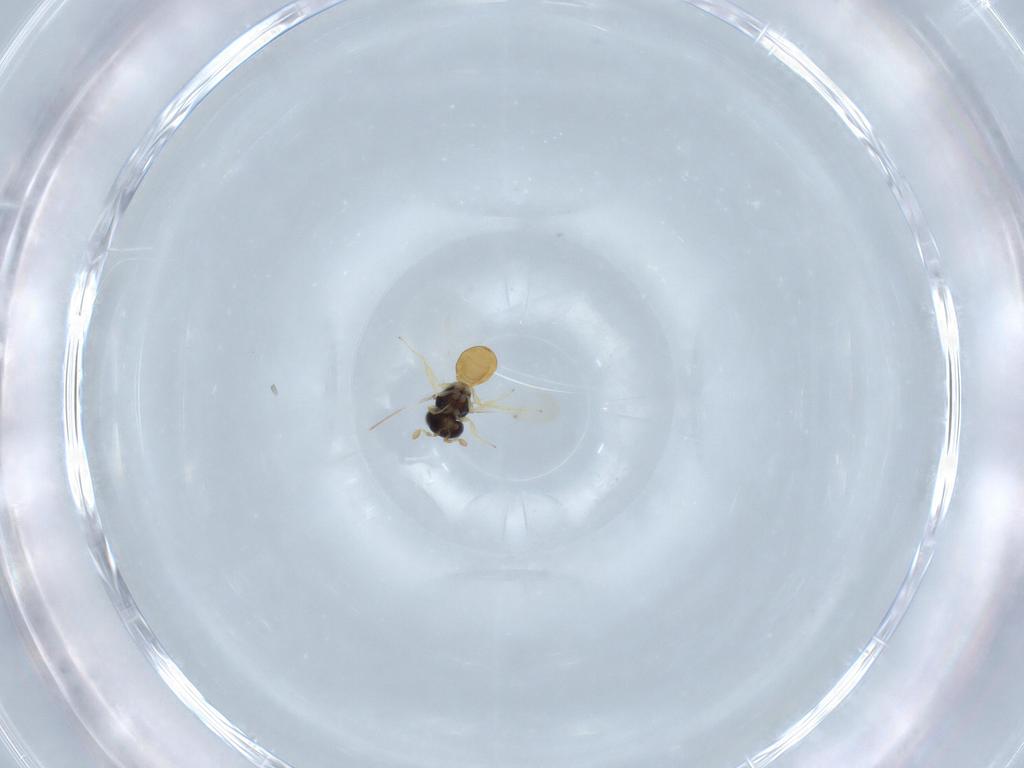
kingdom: Animalia
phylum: Arthropoda
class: Insecta
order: Hymenoptera
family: Scelionidae
